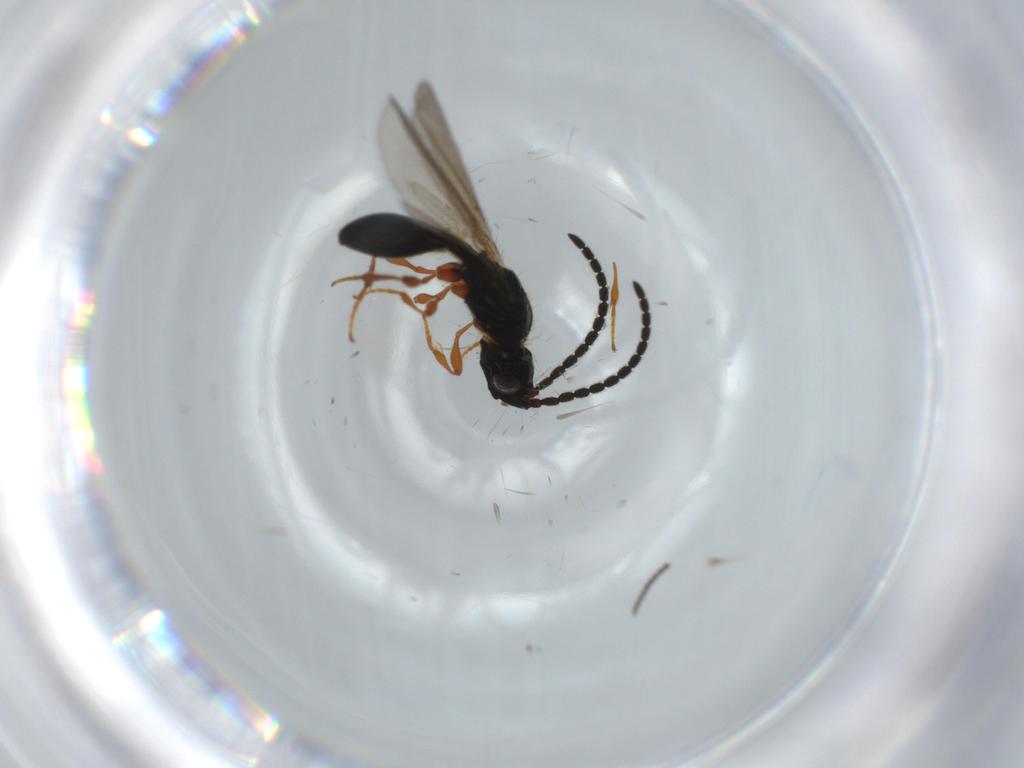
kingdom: Animalia
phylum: Arthropoda
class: Insecta
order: Hymenoptera
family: Diapriidae
